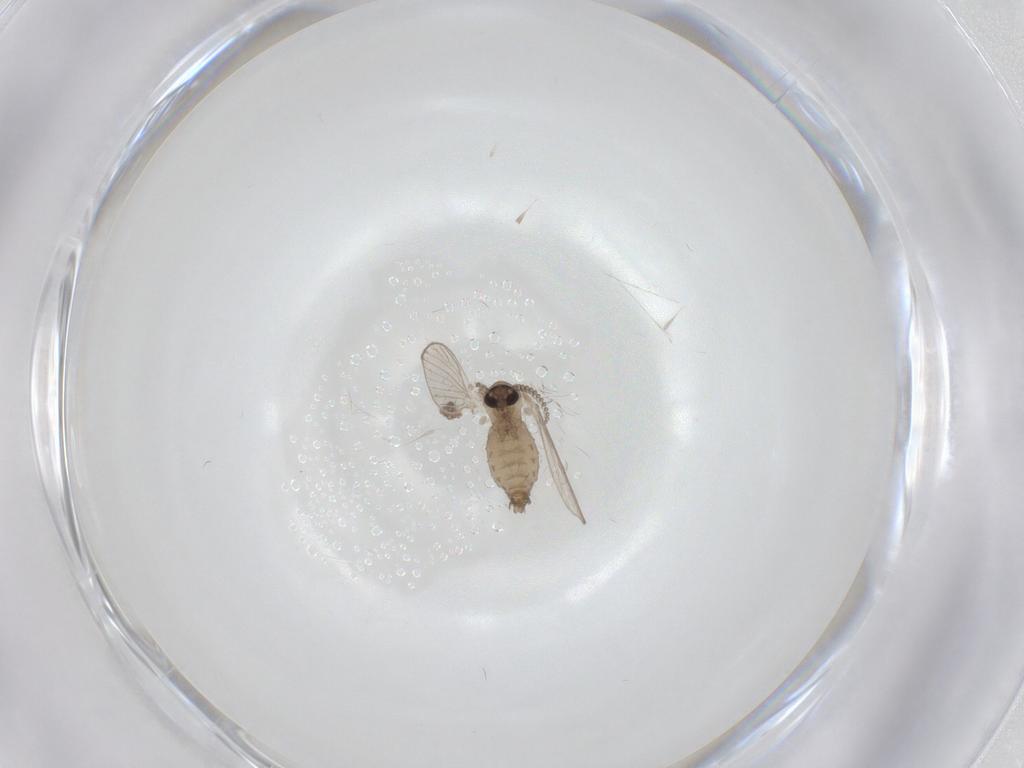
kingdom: Animalia
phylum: Arthropoda
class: Insecta
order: Diptera
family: Psychodidae
